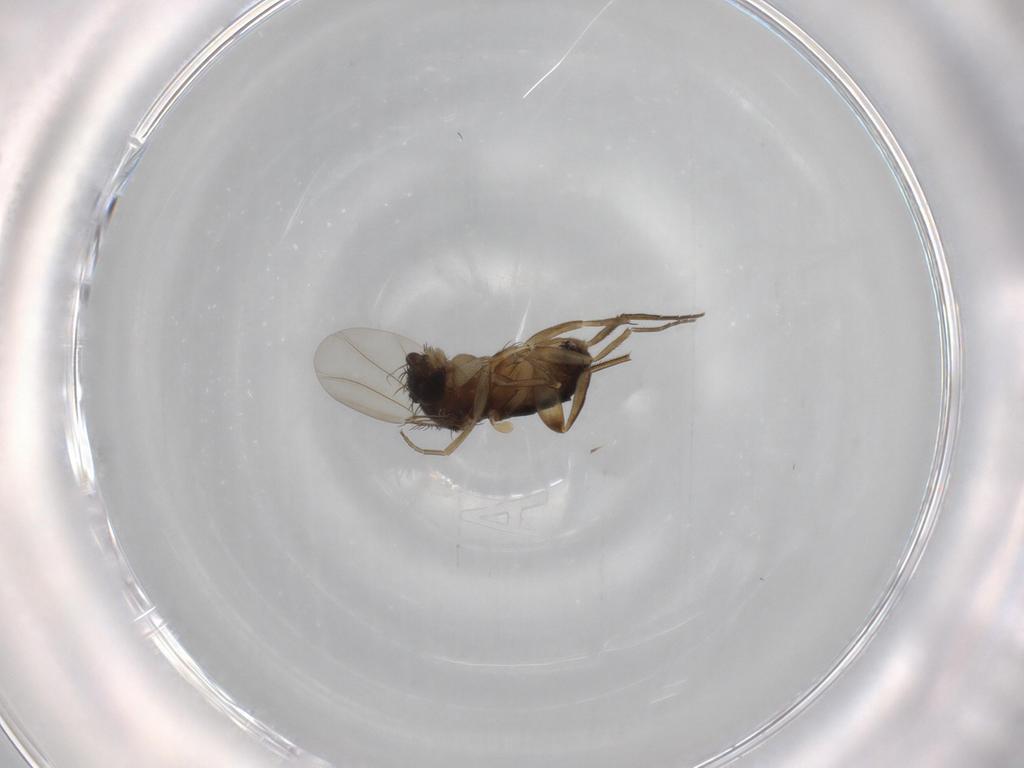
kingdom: Animalia
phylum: Arthropoda
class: Insecta
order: Diptera
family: Phoridae
